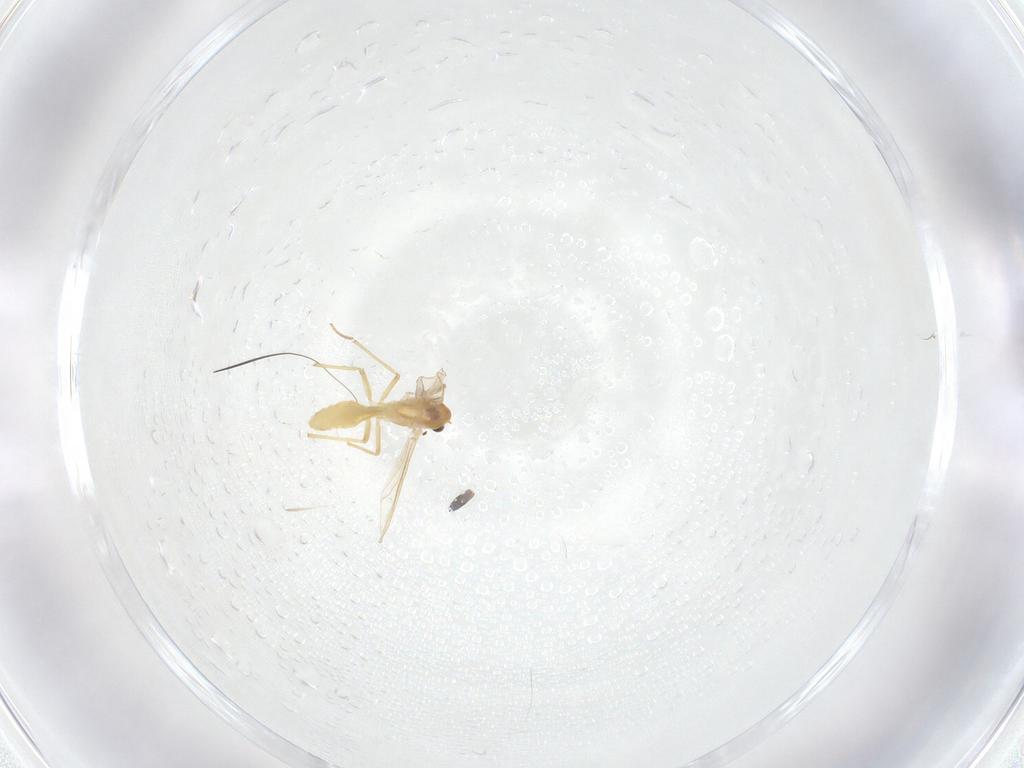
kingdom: Animalia
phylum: Arthropoda
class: Insecta
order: Diptera
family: Chironomidae
